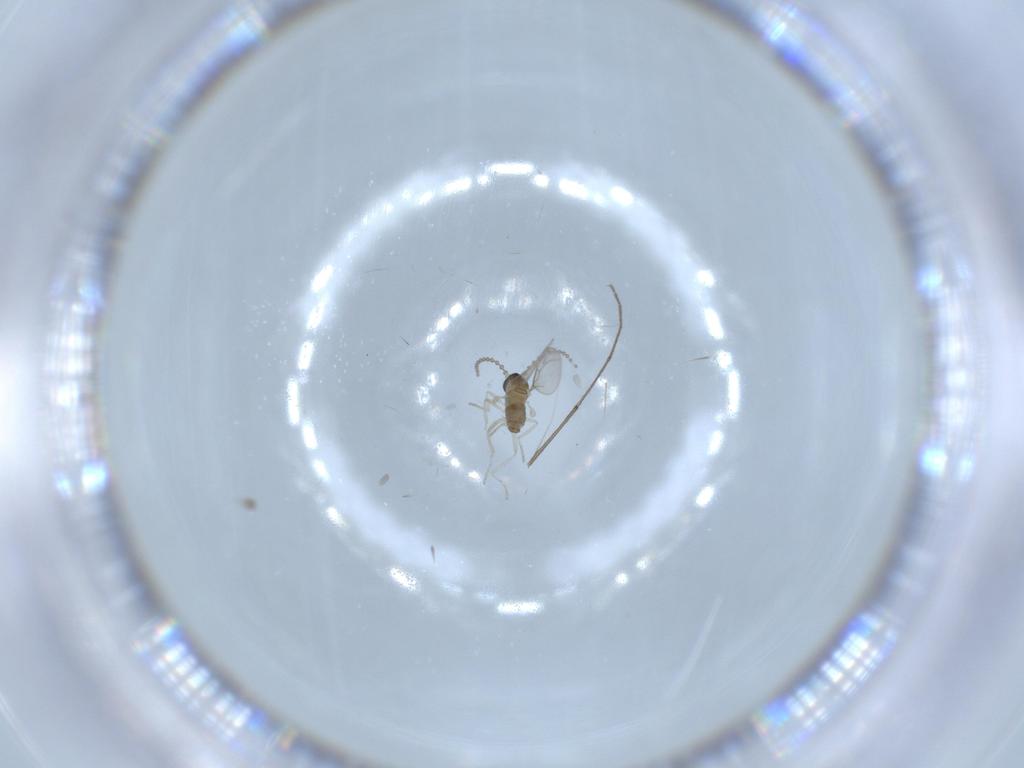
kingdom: Animalia
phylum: Arthropoda
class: Insecta
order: Diptera
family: Cecidomyiidae
